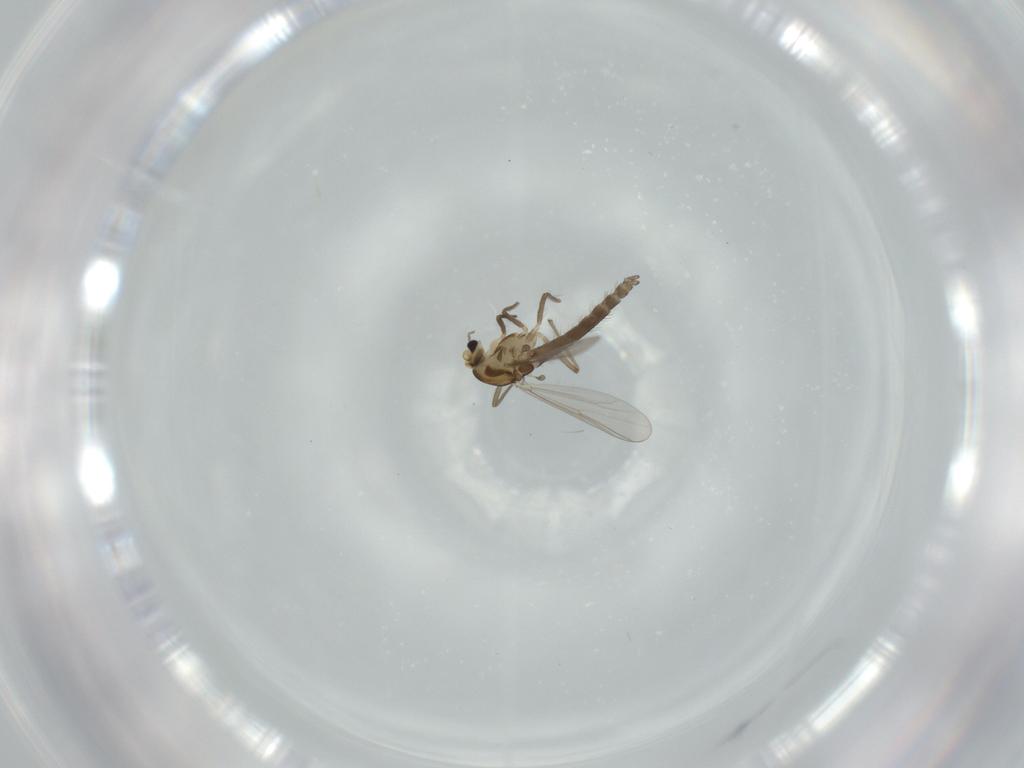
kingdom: Animalia
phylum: Arthropoda
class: Insecta
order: Diptera
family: Chironomidae
